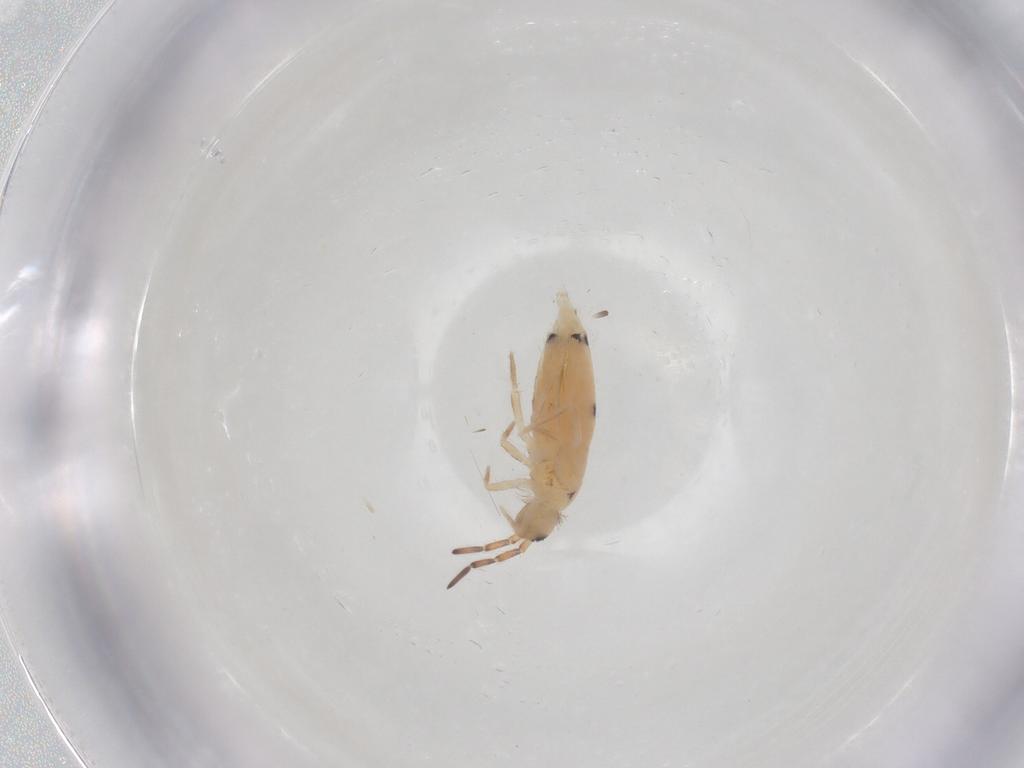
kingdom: Animalia
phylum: Arthropoda
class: Collembola
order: Entomobryomorpha
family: Entomobryidae
